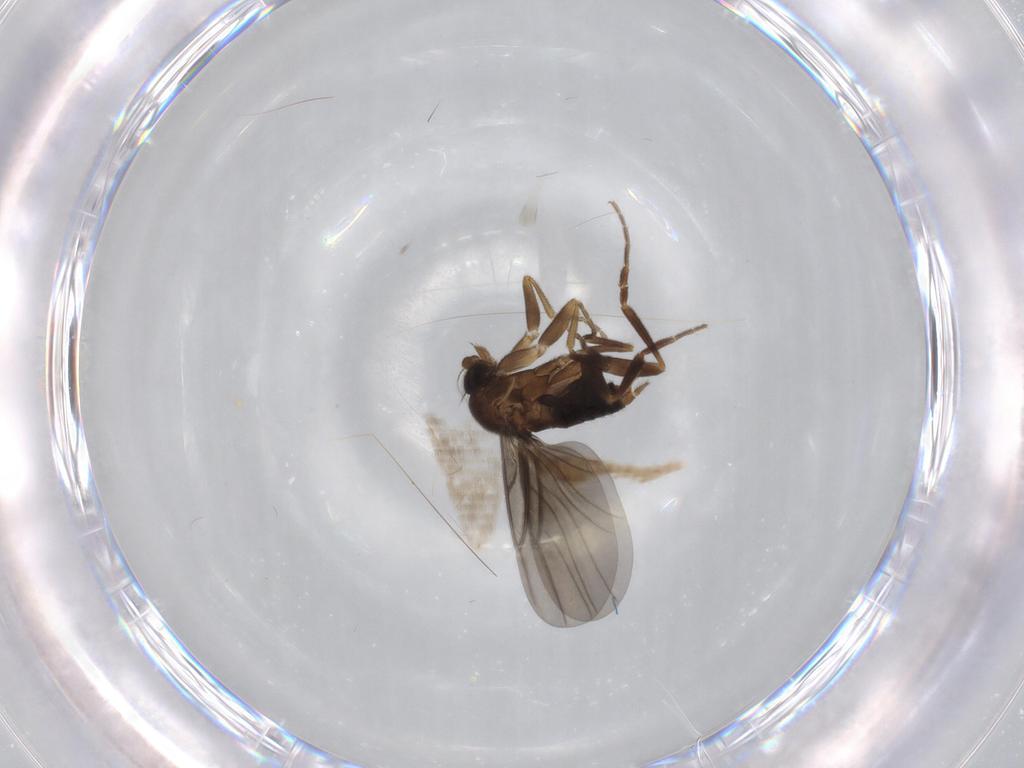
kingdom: Animalia
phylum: Arthropoda
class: Insecta
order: Diptera
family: Phoridae
